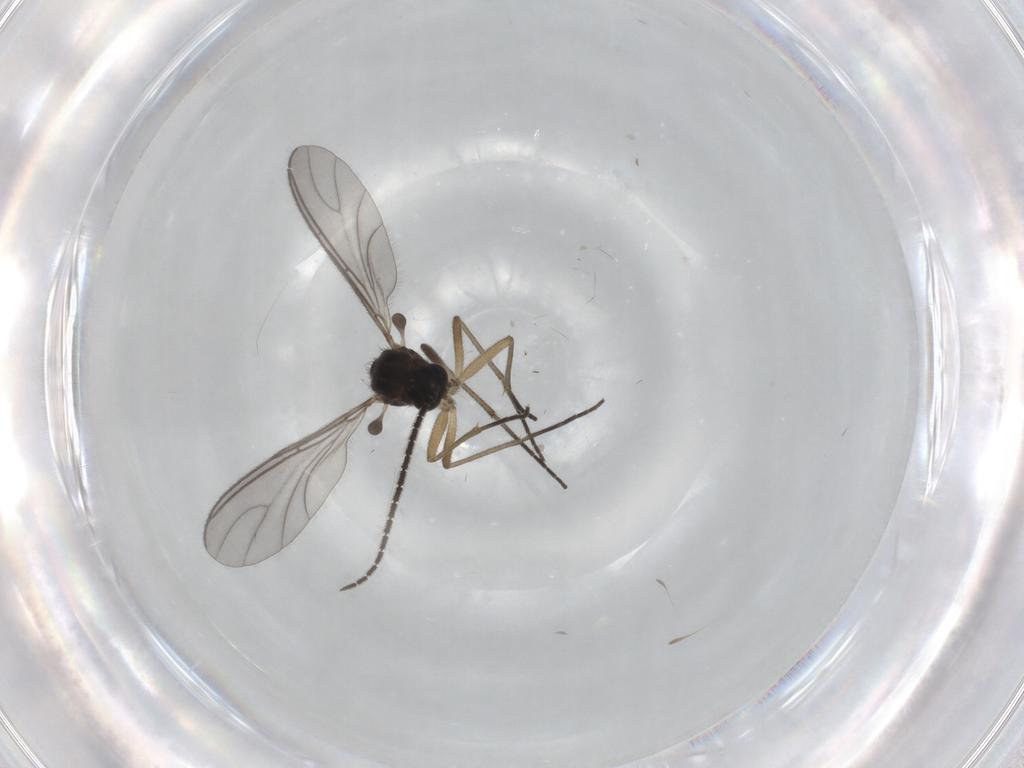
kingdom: Animalia
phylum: Arthropoda
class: Insecta
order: Diptera
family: Sciaridae
